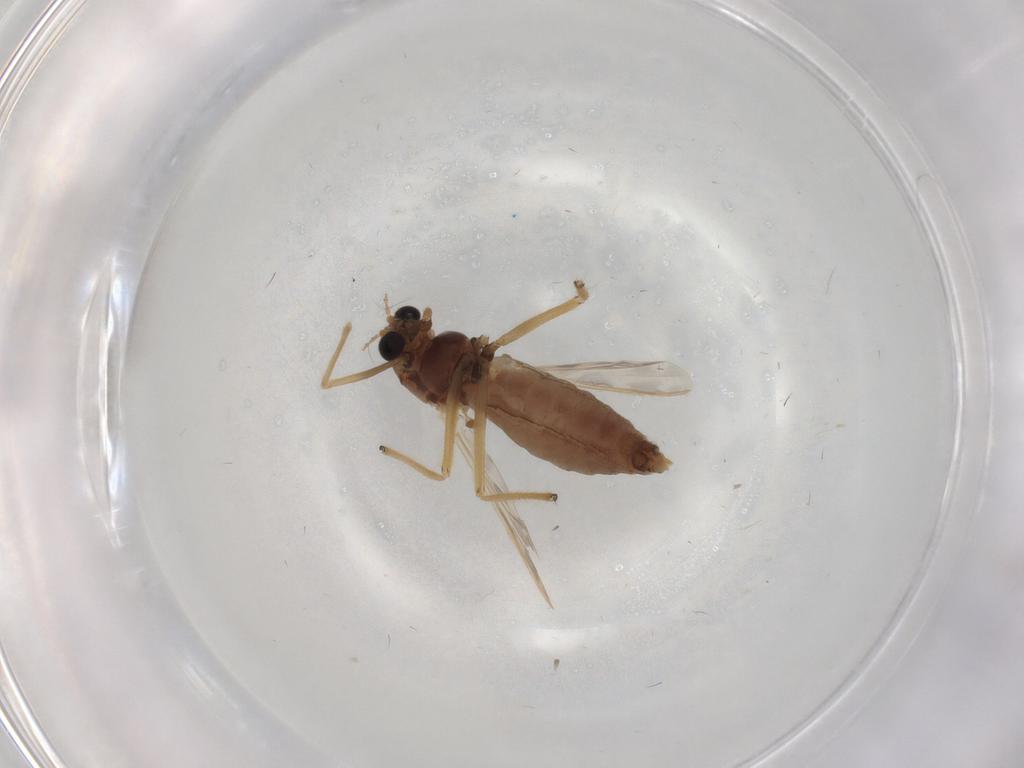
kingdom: Animalia
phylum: Arthropoda
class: Insecta
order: Diptera
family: Chironomidae
